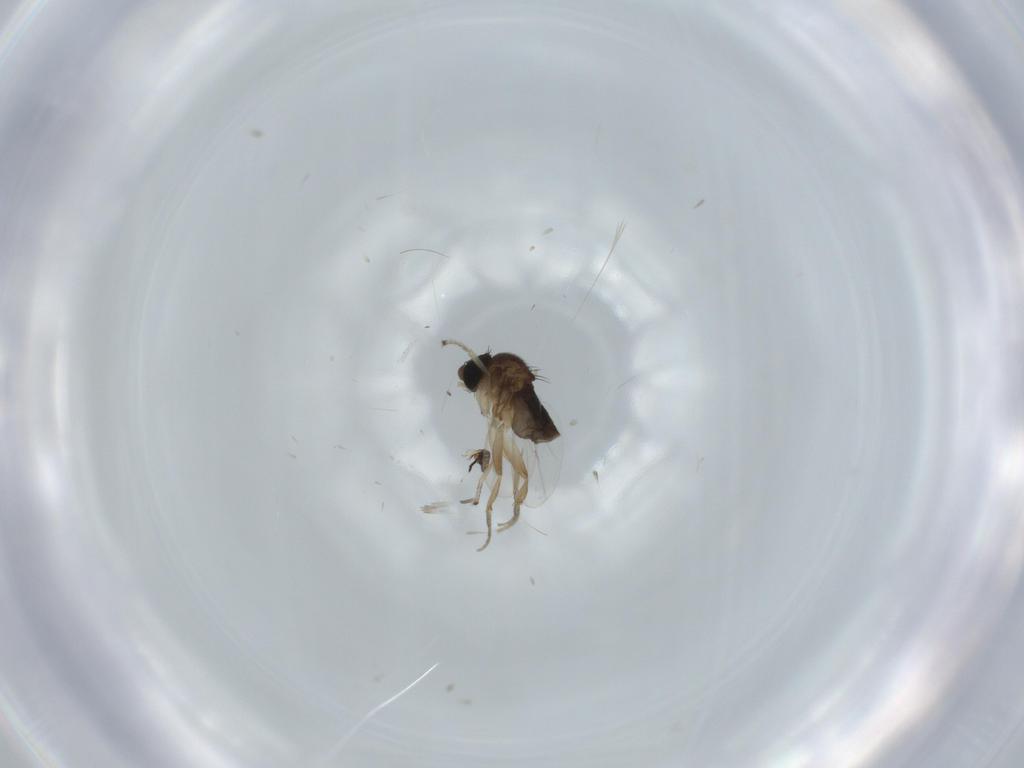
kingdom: Animalia
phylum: Arthropoda
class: Insecta
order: Diptera
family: Phoridae
